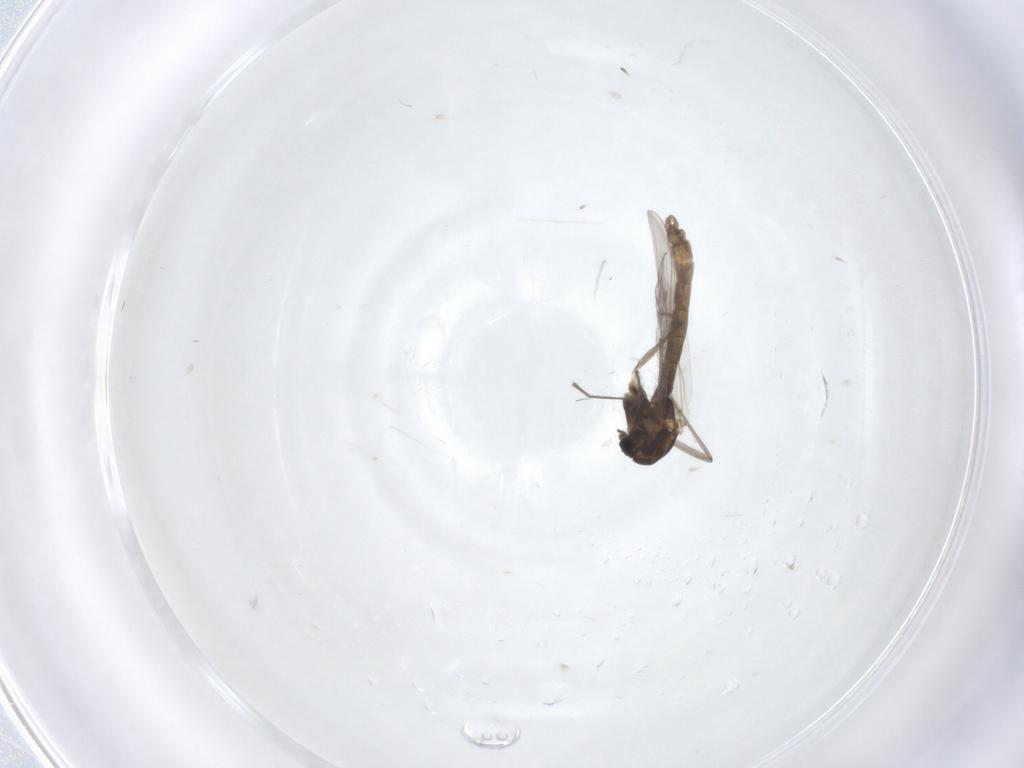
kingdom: Animalia
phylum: Arthropoda
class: Insecta
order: Diptera
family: Chironomidae
